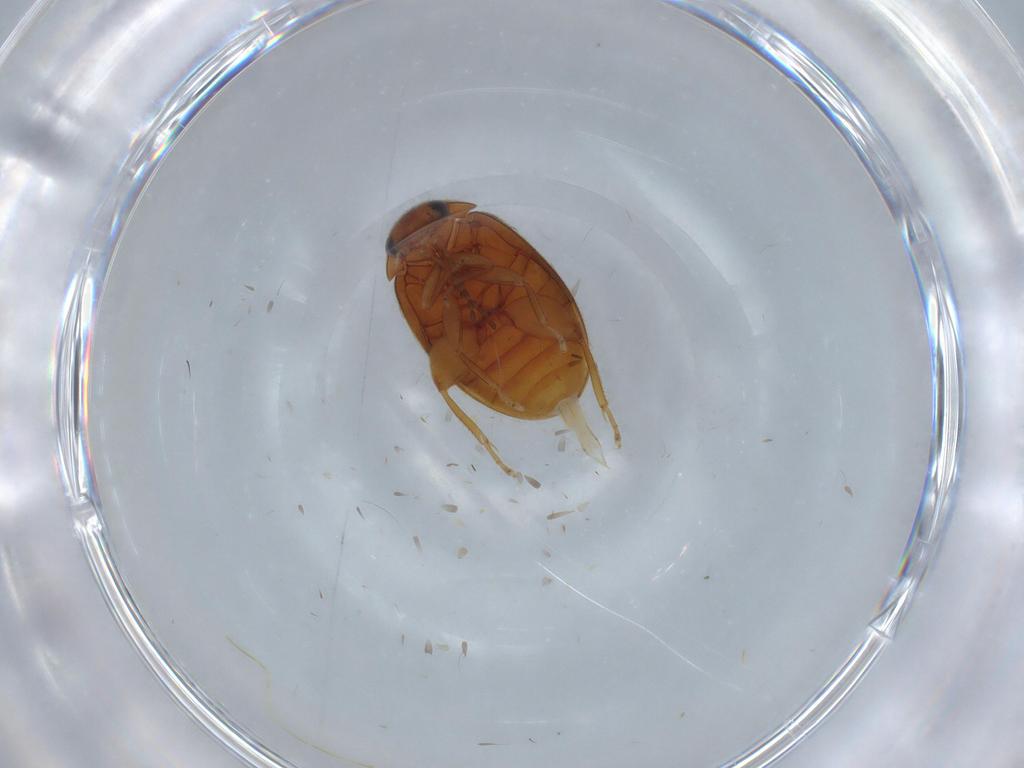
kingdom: Animalia
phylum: Arthropoda
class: Insecta
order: Coleoptera
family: Scirtidae
